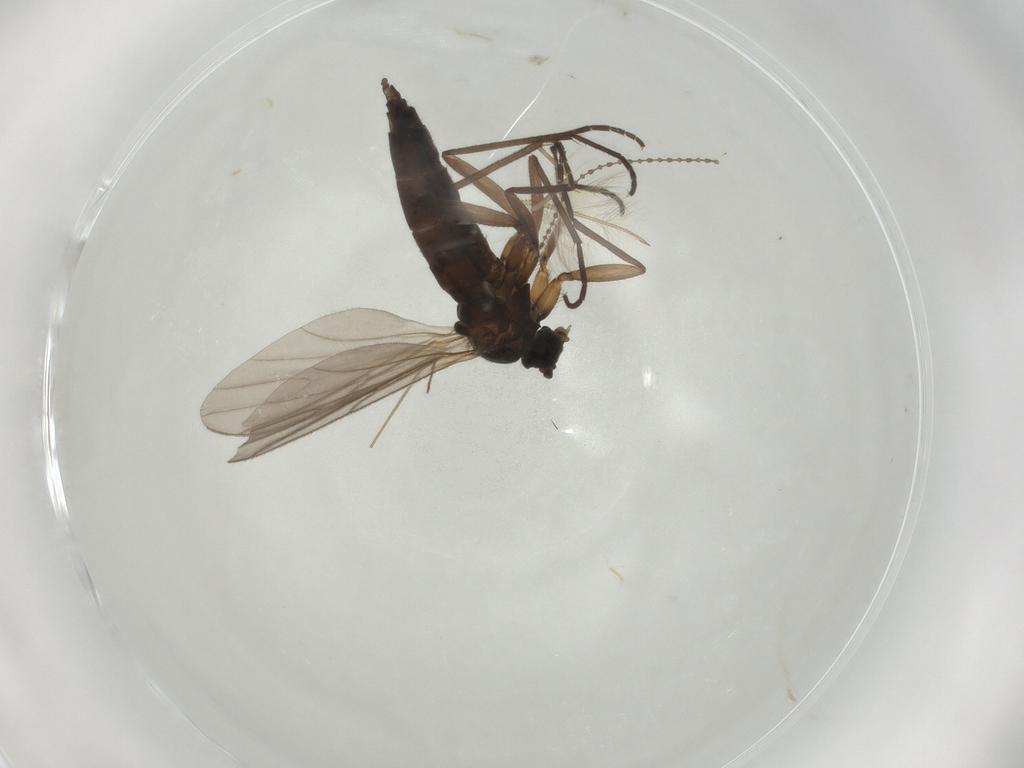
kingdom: Animalia
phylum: Arthropoda
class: Insecta
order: Diptera
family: Sciaridae
